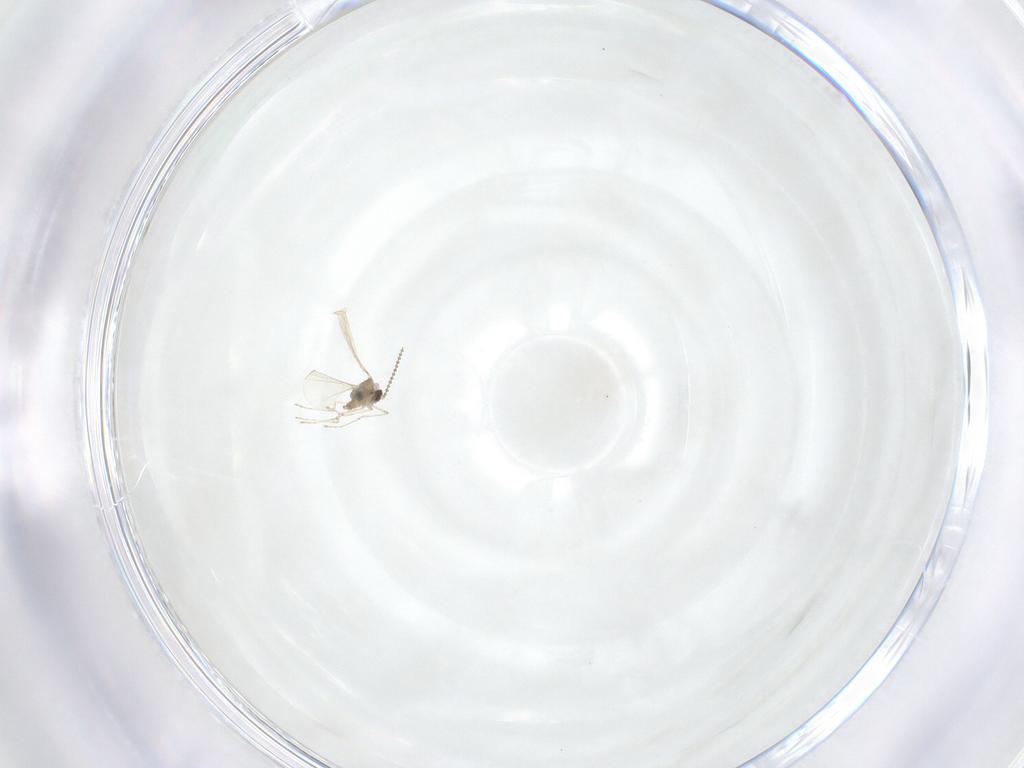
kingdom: Animalia
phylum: Arthropoda
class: Insecta
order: Diptera
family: Cecidomyiidae
